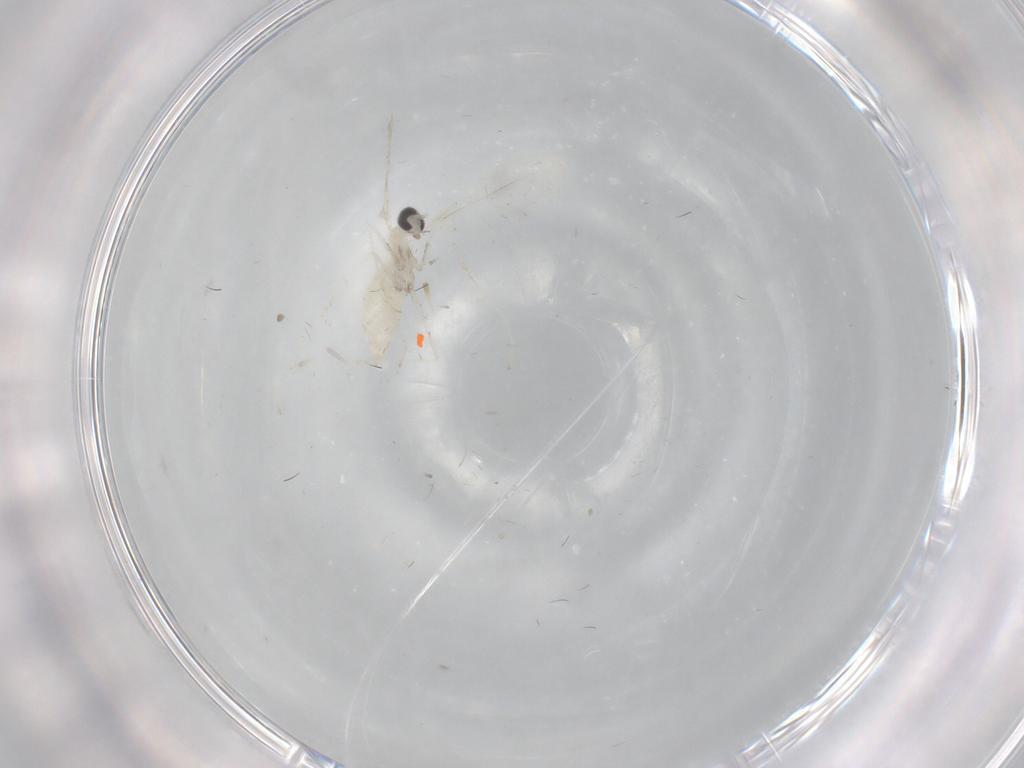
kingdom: Animalia
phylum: Arthropoda
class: Insecta
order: Diptera
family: Cecidomyiidae
